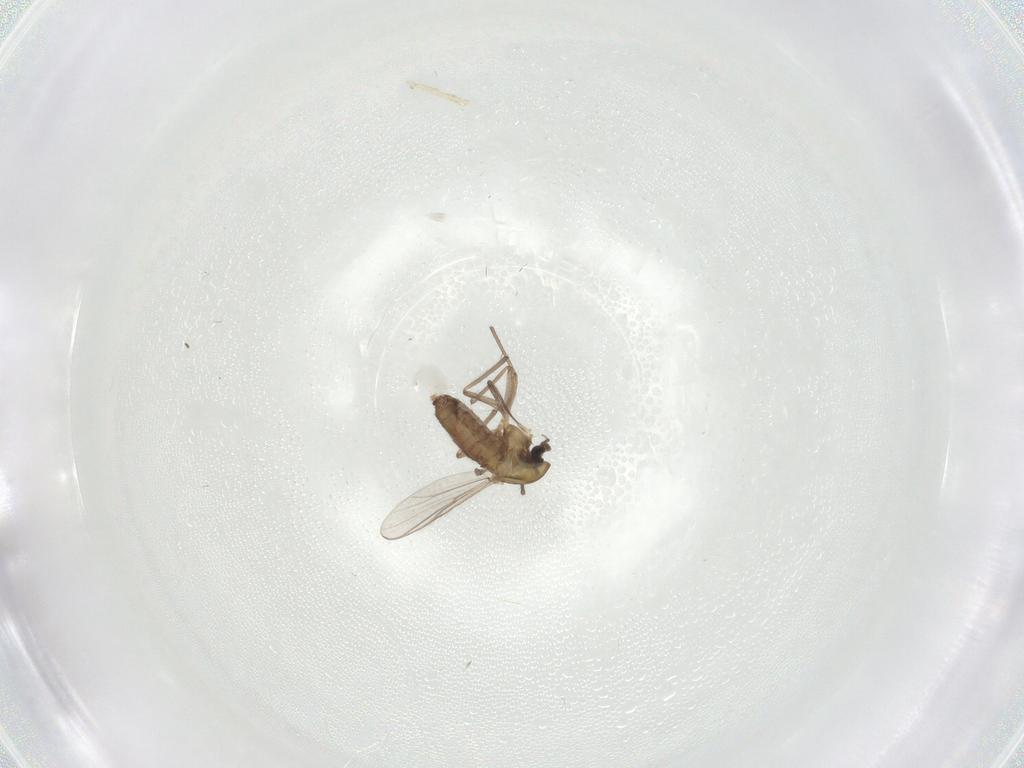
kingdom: Animalia
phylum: Arthropoda
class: Insecta
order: Diptera
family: Chironomidae
